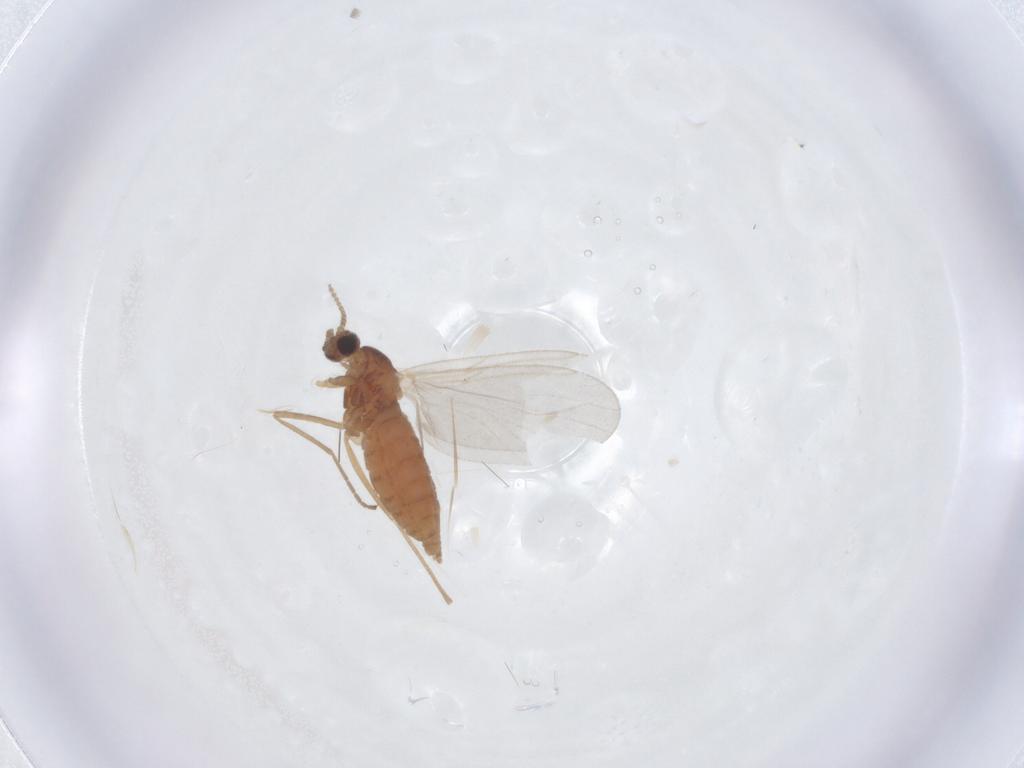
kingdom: Animalia
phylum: Arthropoda
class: Insecta
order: Diptera
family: Cecidomyiidae
